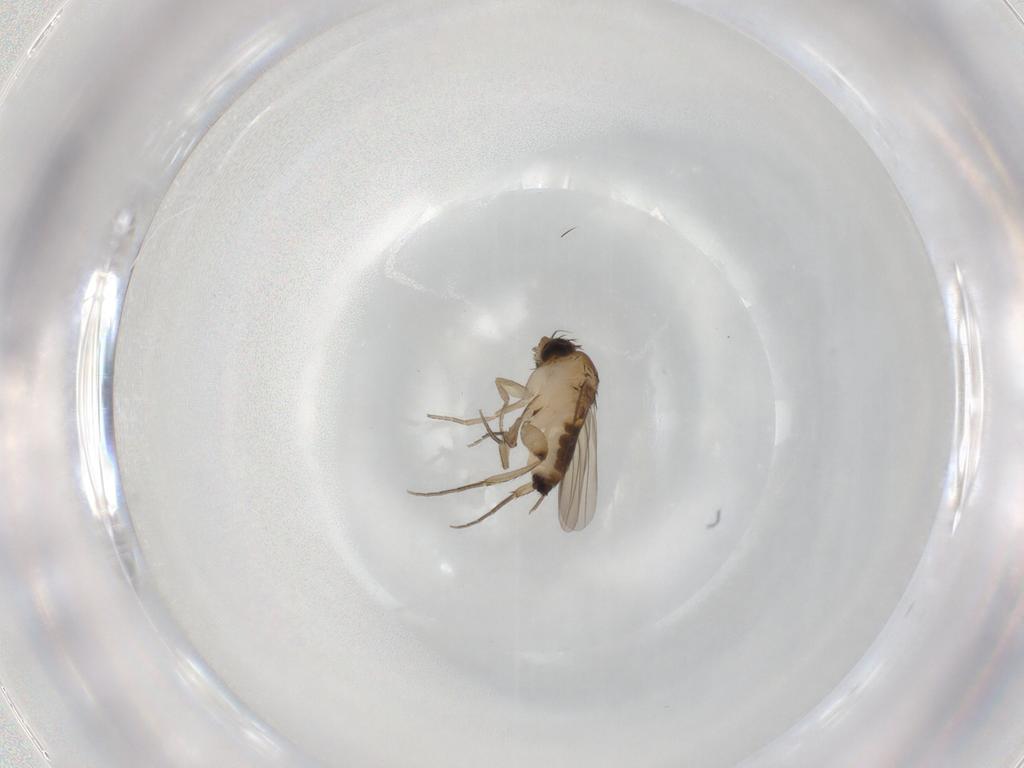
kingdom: Animalia
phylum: Arthropoda
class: Insecta
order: Diptera
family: Phoridae
